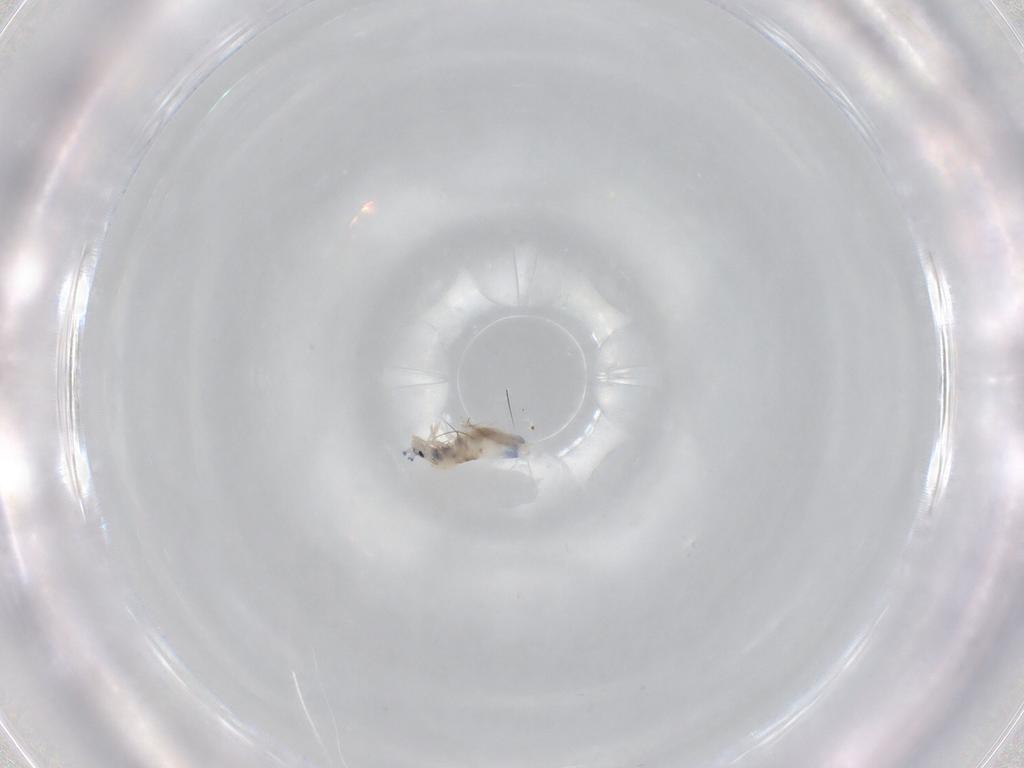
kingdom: Animalia
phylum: Arthropoda
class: Collembola
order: Entomobryomorpha
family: Entomobryidae
